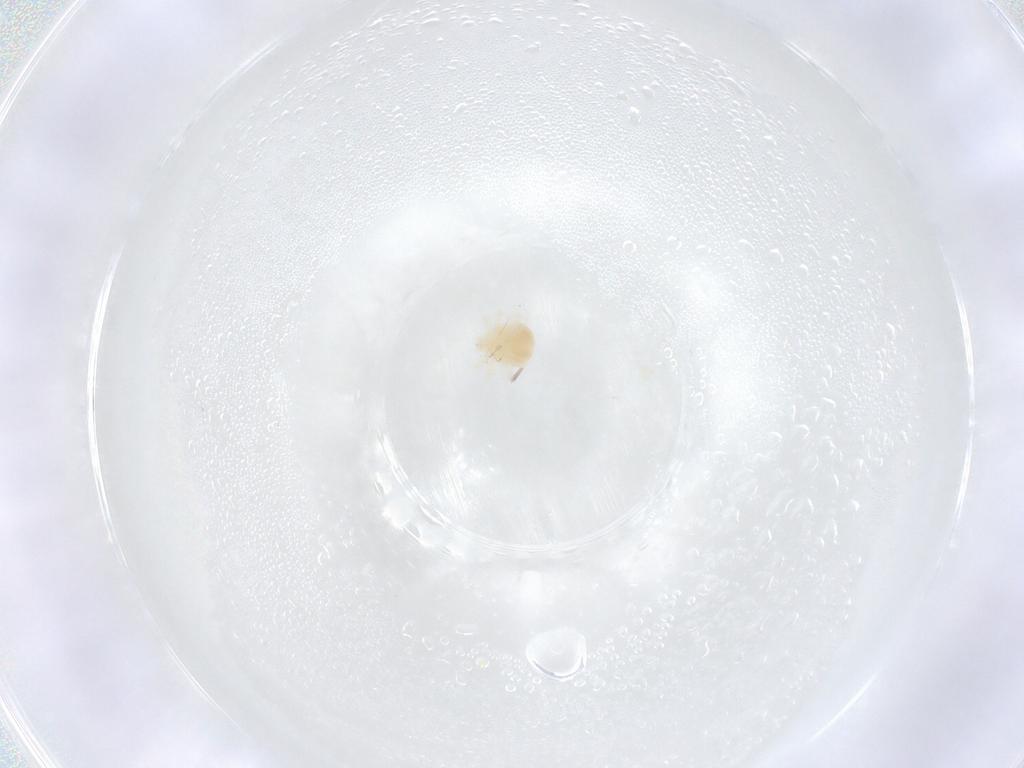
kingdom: Animalia
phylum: Arthropoda
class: Arachnida
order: Trombidiformes
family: Anystidae
